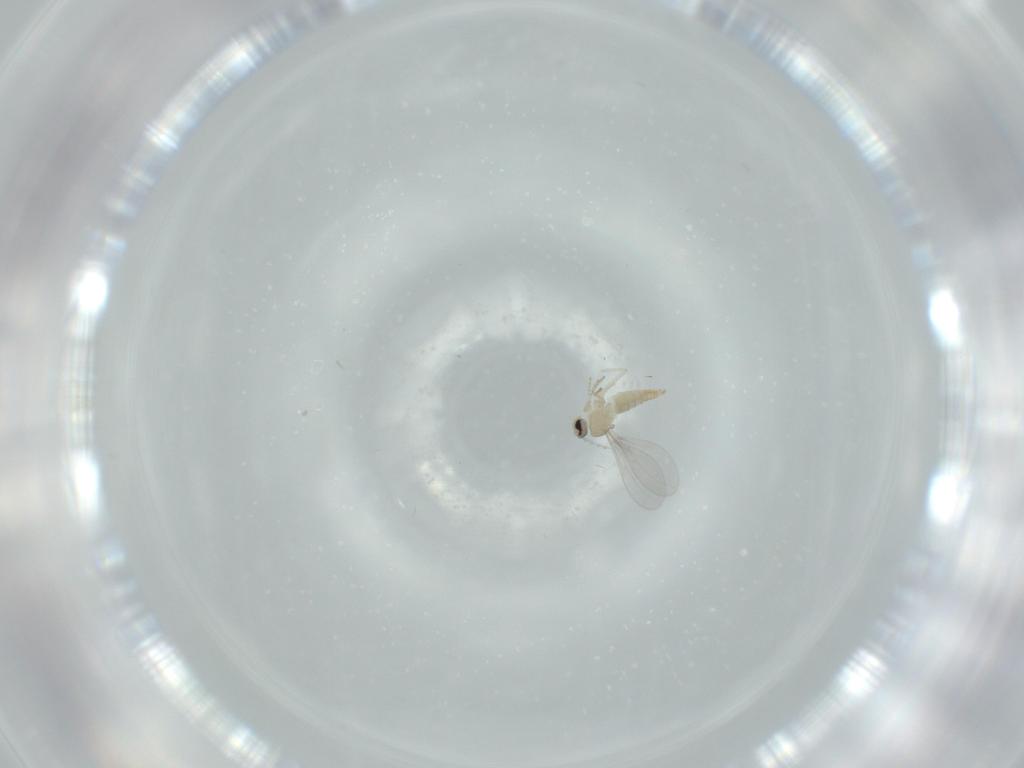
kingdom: Animalia
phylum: Arthropoda
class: Insecta
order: Diptera
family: Cecidomyiidae
